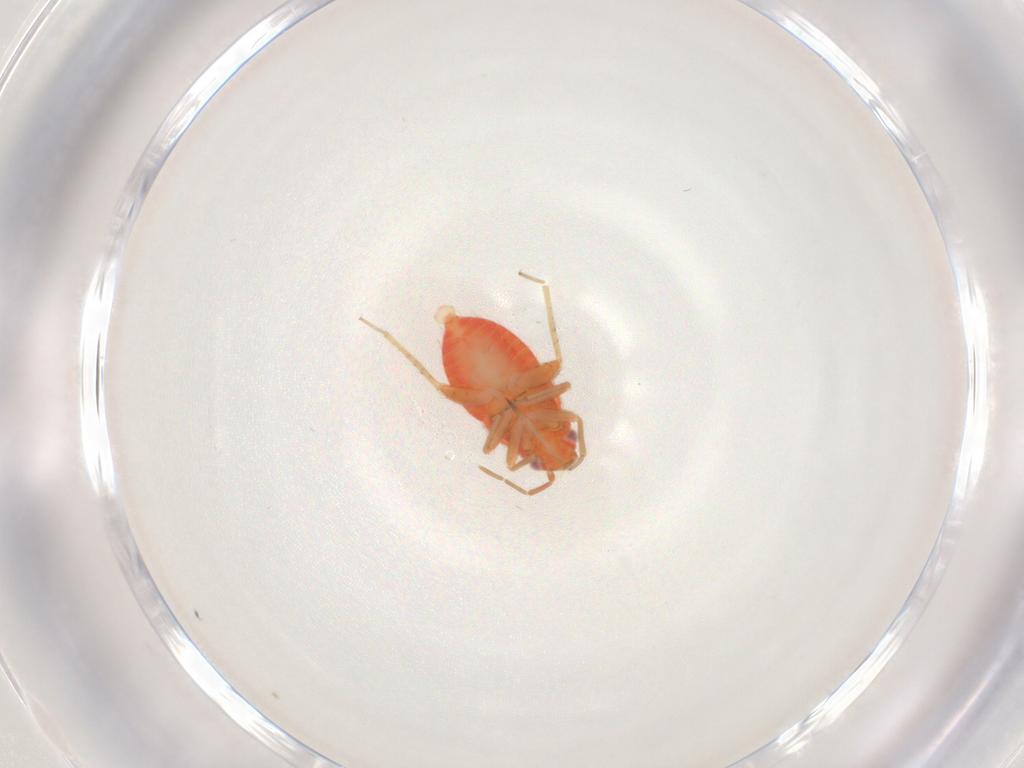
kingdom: Animalia
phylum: Arthropoda
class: Insecta
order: Hemiptera
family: Miridae
